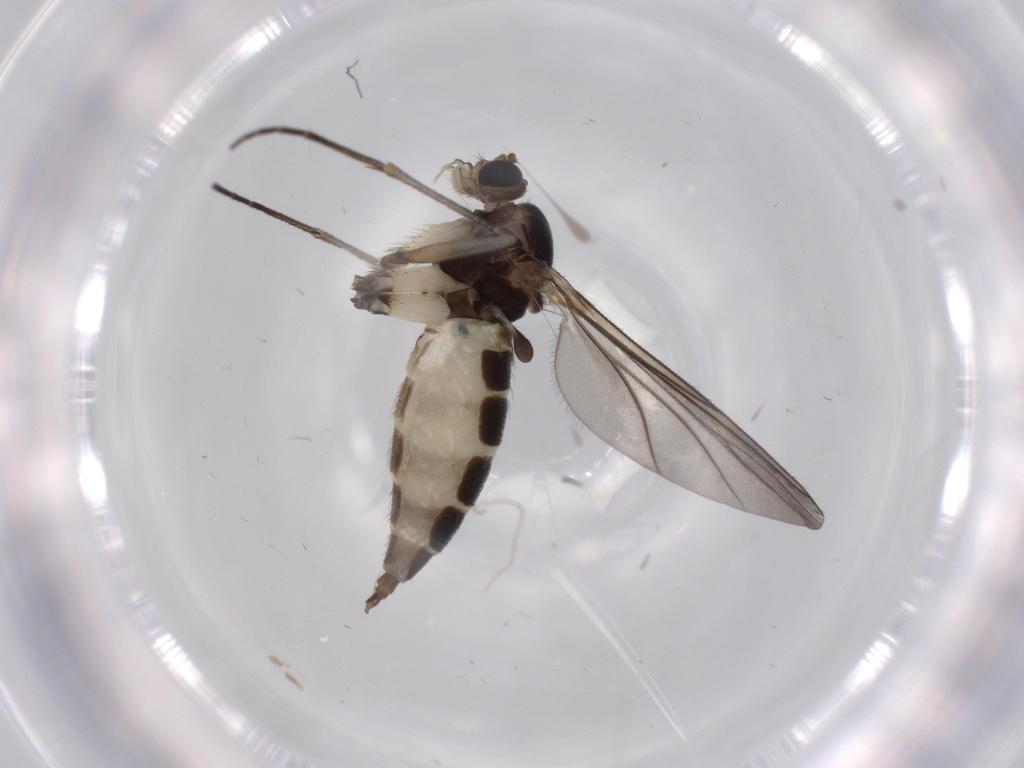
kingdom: Animalia
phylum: Arthropoda
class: Insecta
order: Diptera
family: Sciaridae
